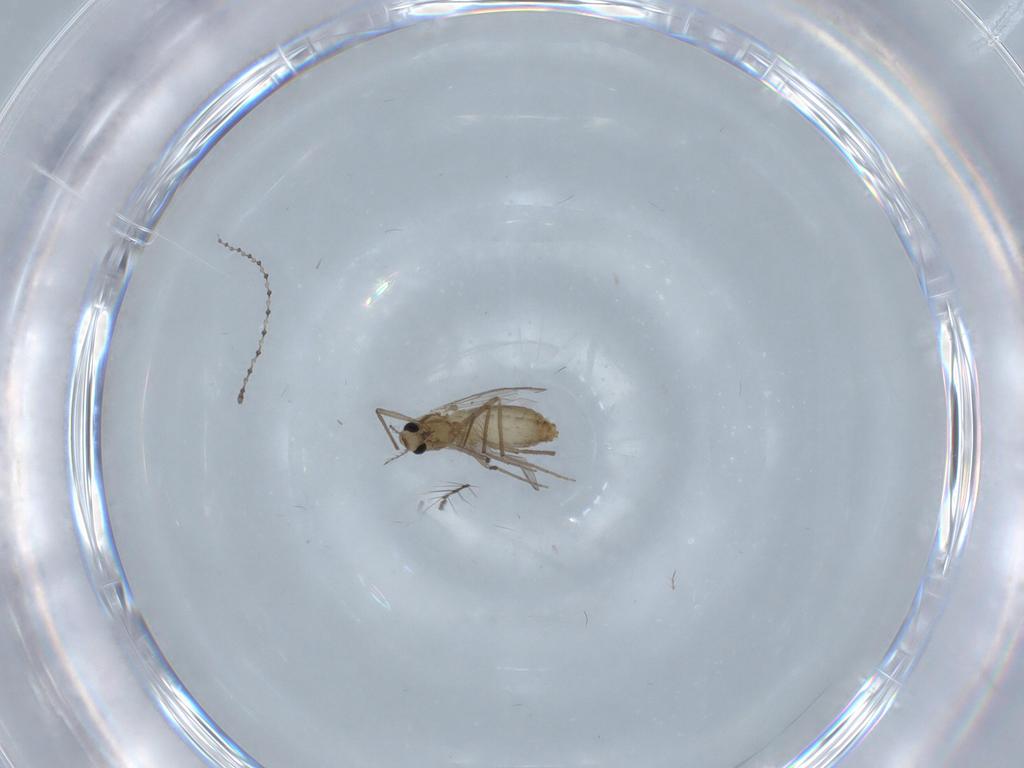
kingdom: Animalia
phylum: Arthropoda
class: Insecta
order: Diptera
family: Chironomidae
